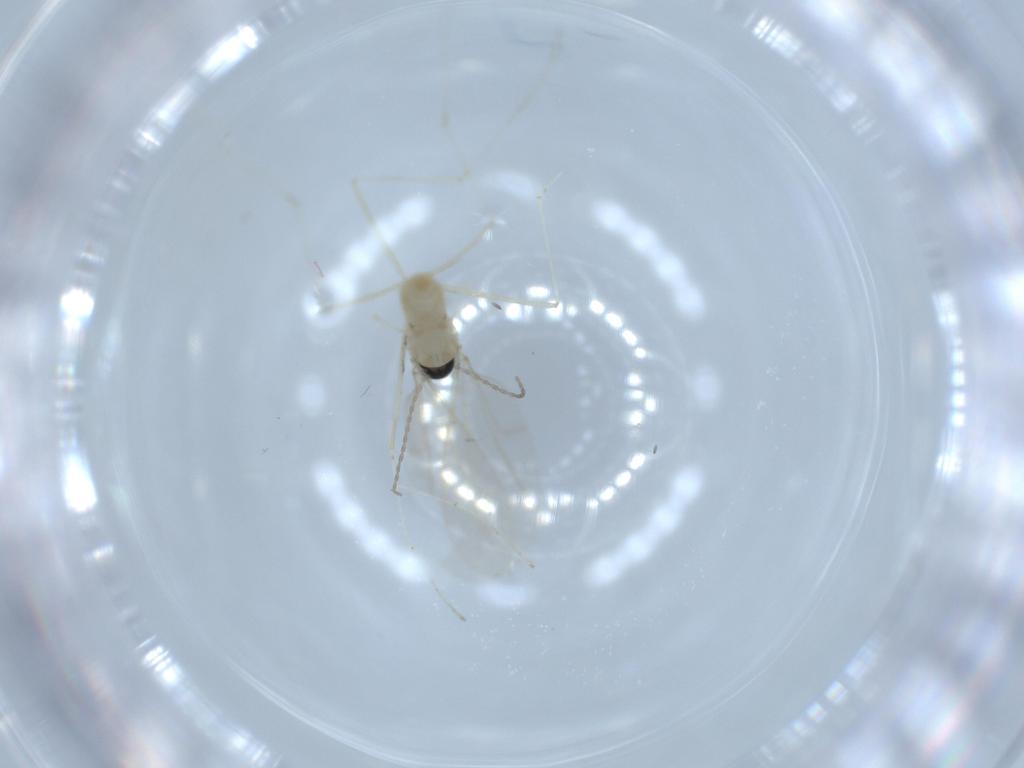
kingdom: Animalia
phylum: Arthropoda
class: Insecta
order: Diptera
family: Cecidomyiidae
